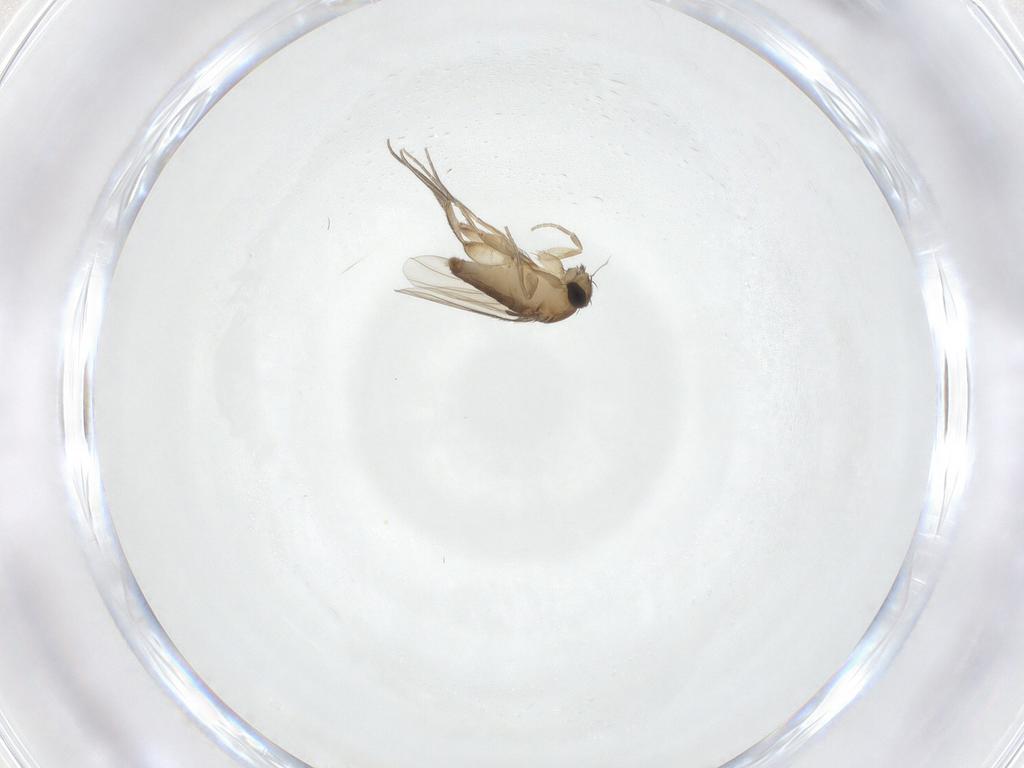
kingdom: Animalia
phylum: Arthropoda
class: Insecta
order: Diptera
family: Phoridae
